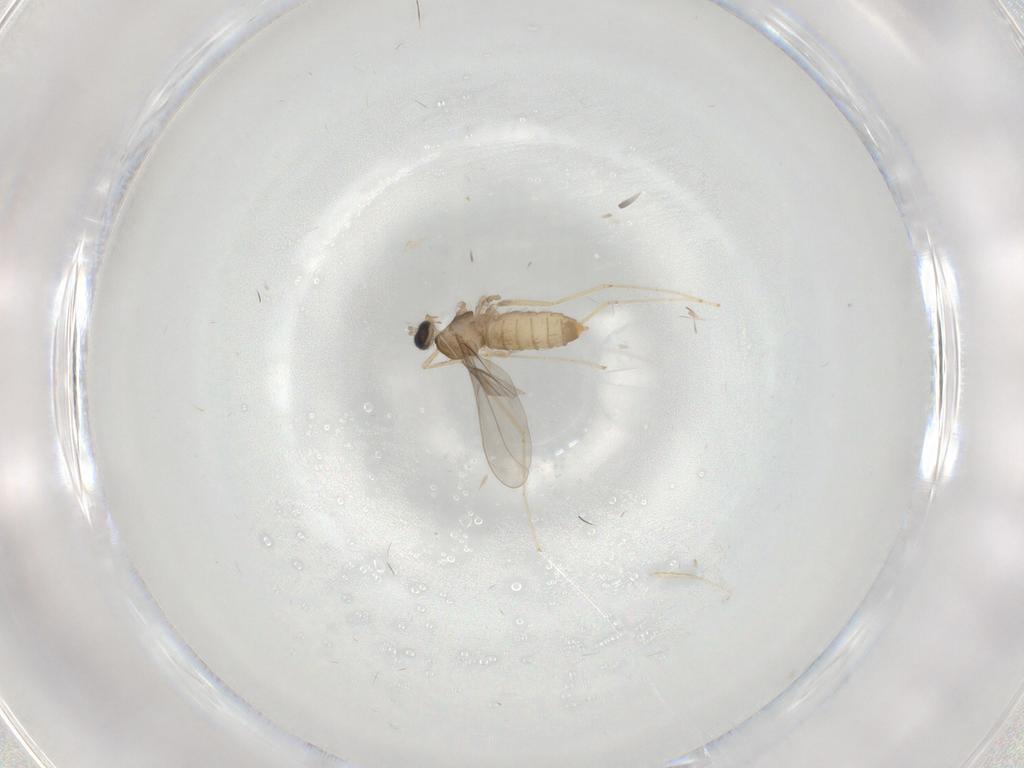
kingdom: Animalia
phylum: Arthropoda
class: Insecta
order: Diptera
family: Cecidomyiidae
